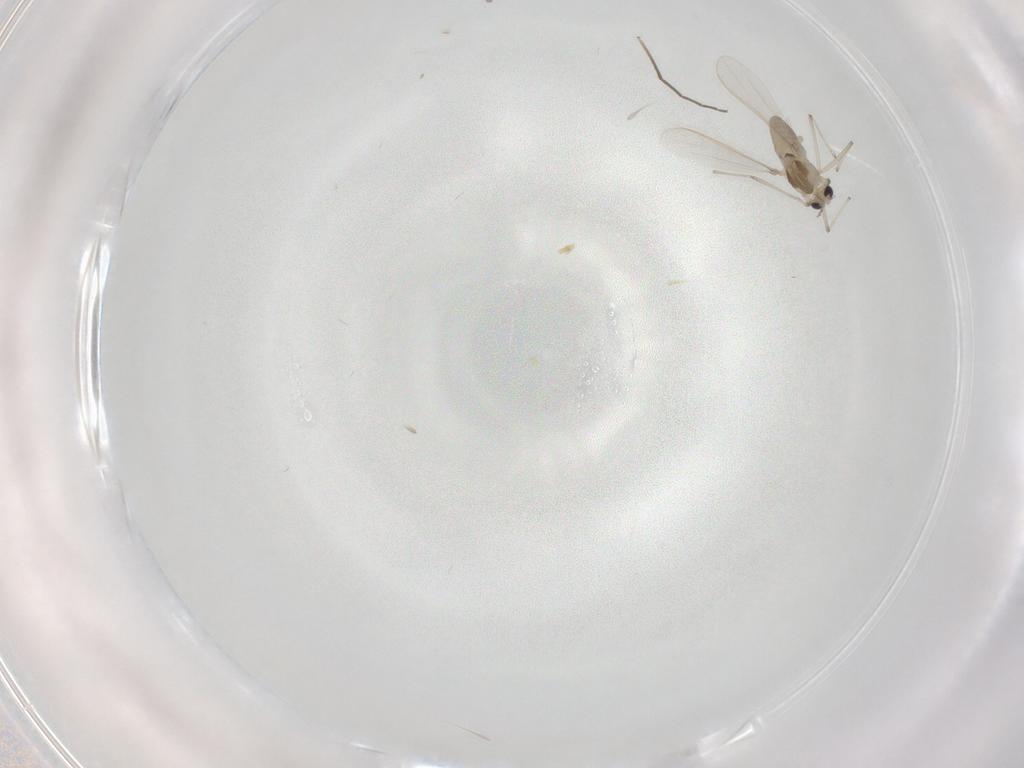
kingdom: Animalia
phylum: Arthropoda
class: Insecta
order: Diptera
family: Chironomidae
